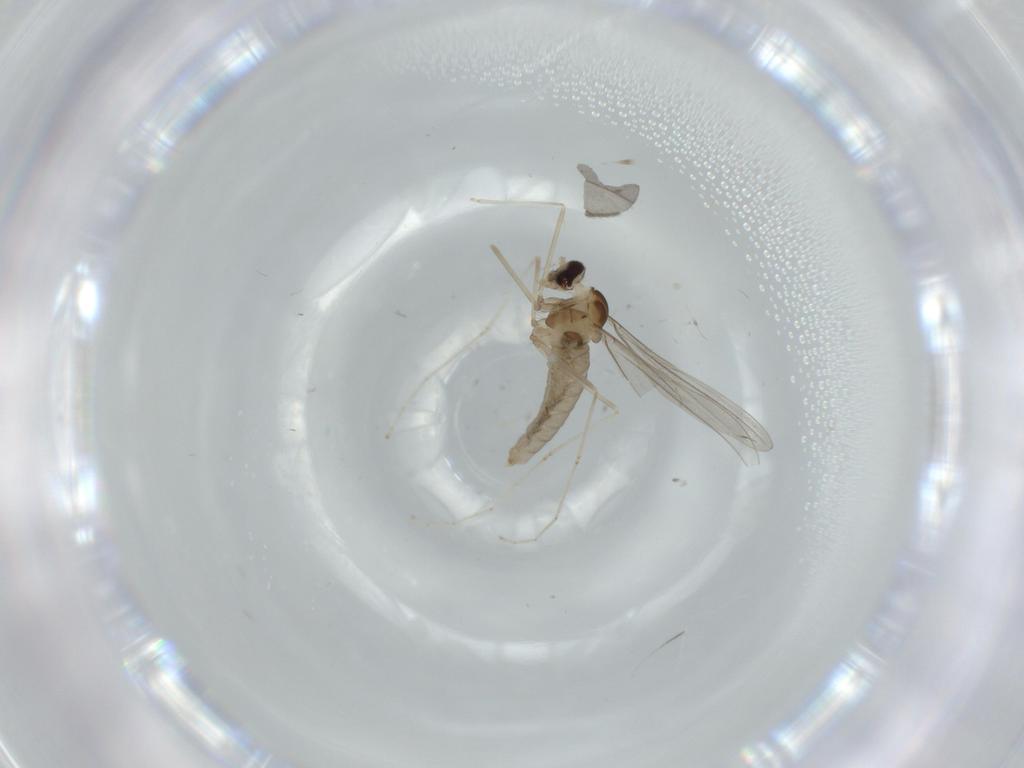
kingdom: Animalia
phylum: Arthropoda
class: Insecta
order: Diptera
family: Cecidomyiidae
